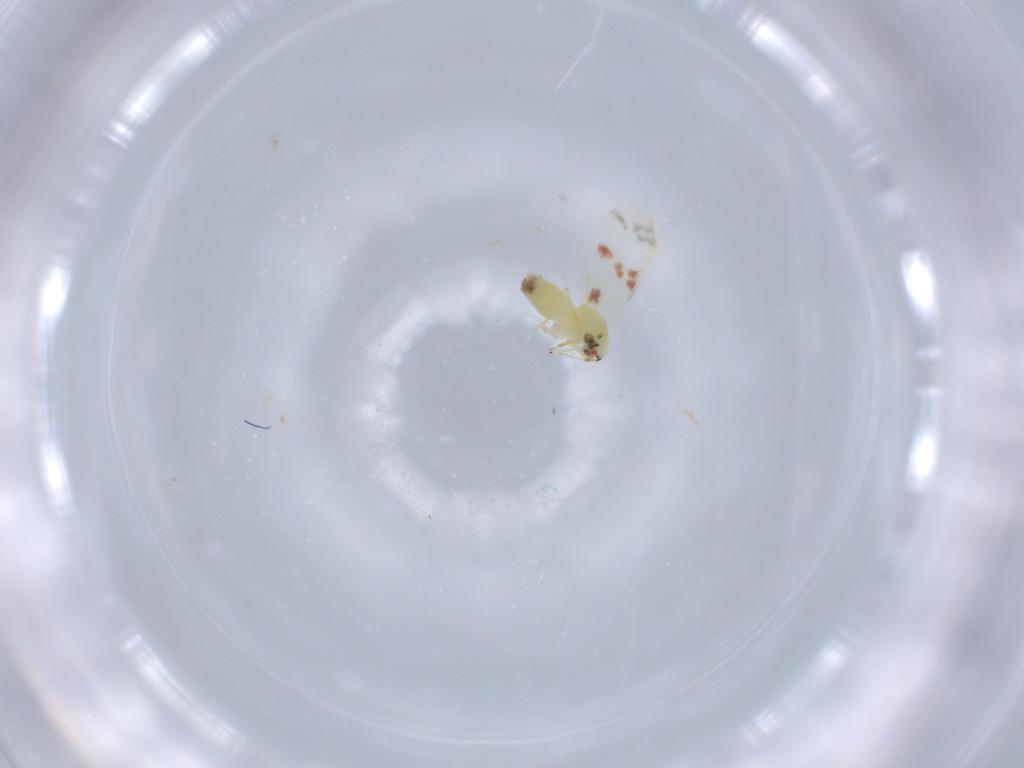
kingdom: Animalia
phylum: Arthropoda
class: Insecta
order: Hemiptera
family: Aleyrodidae
